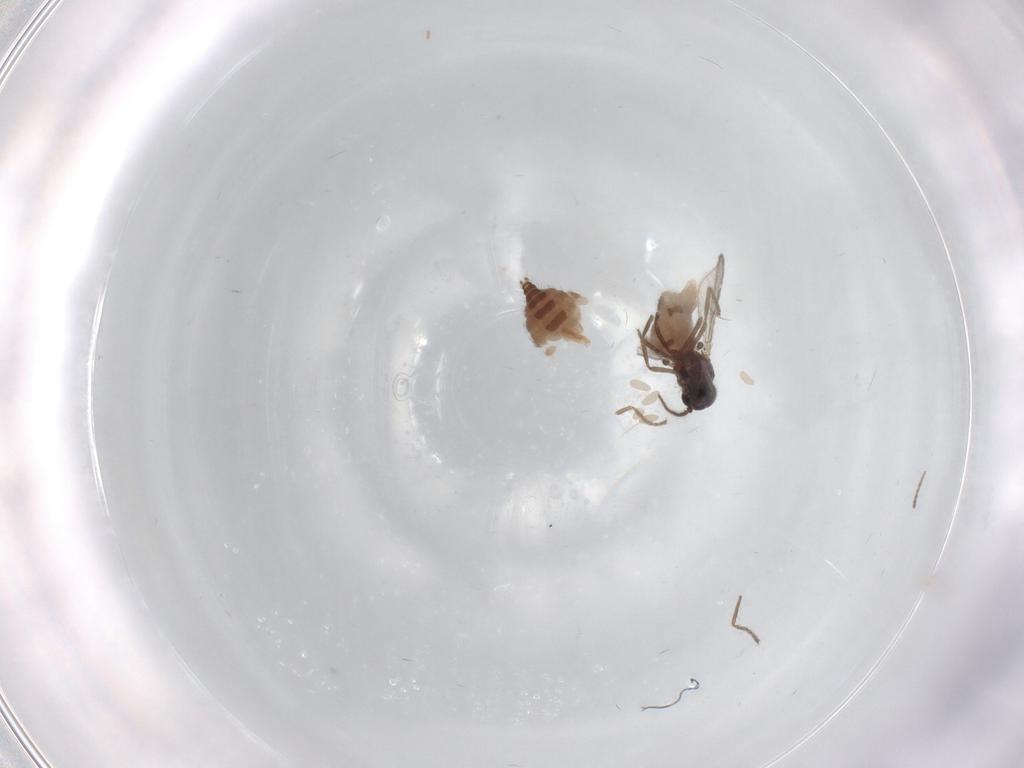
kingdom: Animalia
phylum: Arthropoda
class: Insecta
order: Diptera
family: Ceratopogonidae
